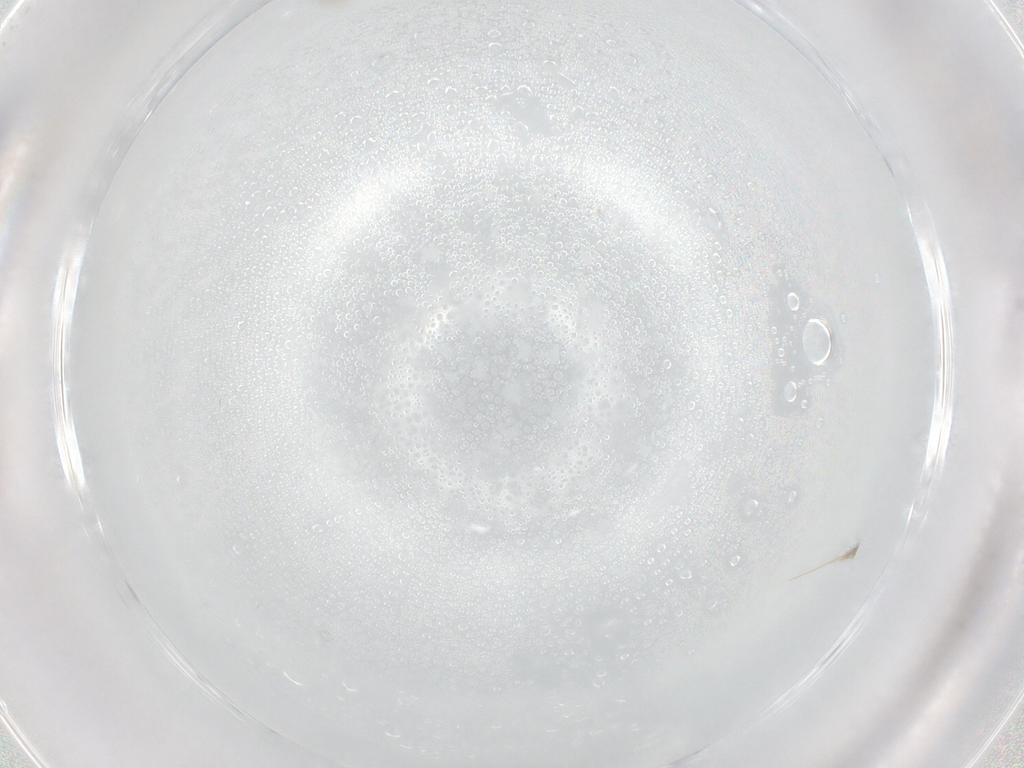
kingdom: Animalia
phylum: Arthropoda
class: Insecta
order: Diptera
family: Cecidomyiidae
